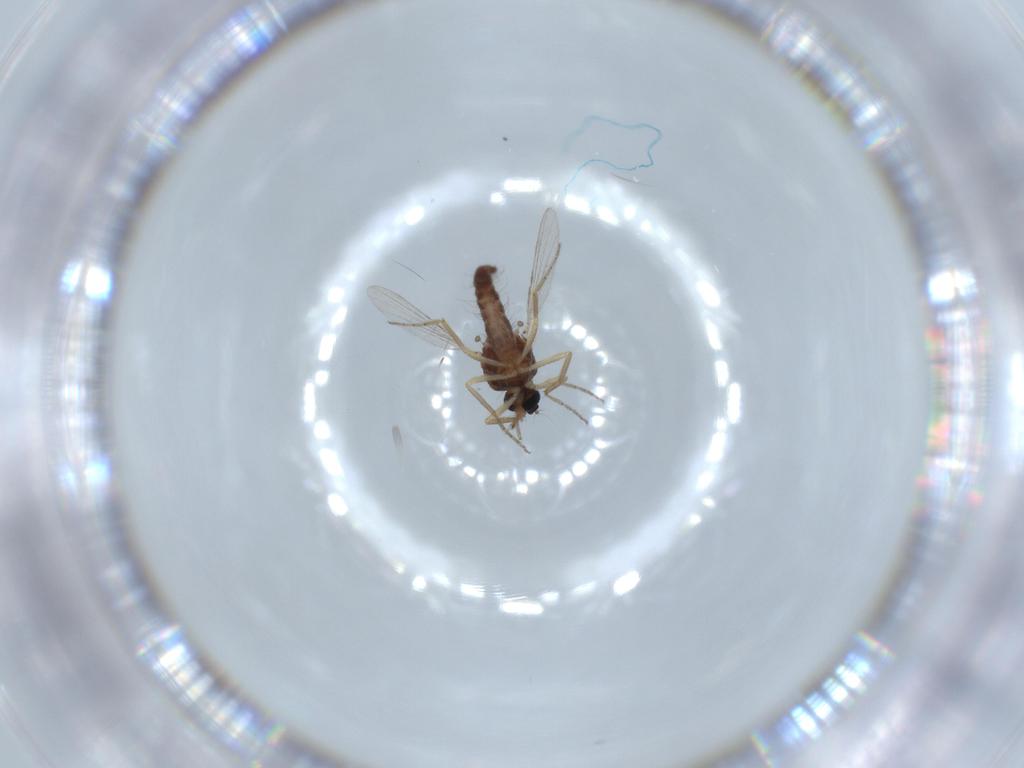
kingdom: Animalia
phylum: Arthropoda
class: Insecta
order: Diptera
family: Ceratopogonidae
